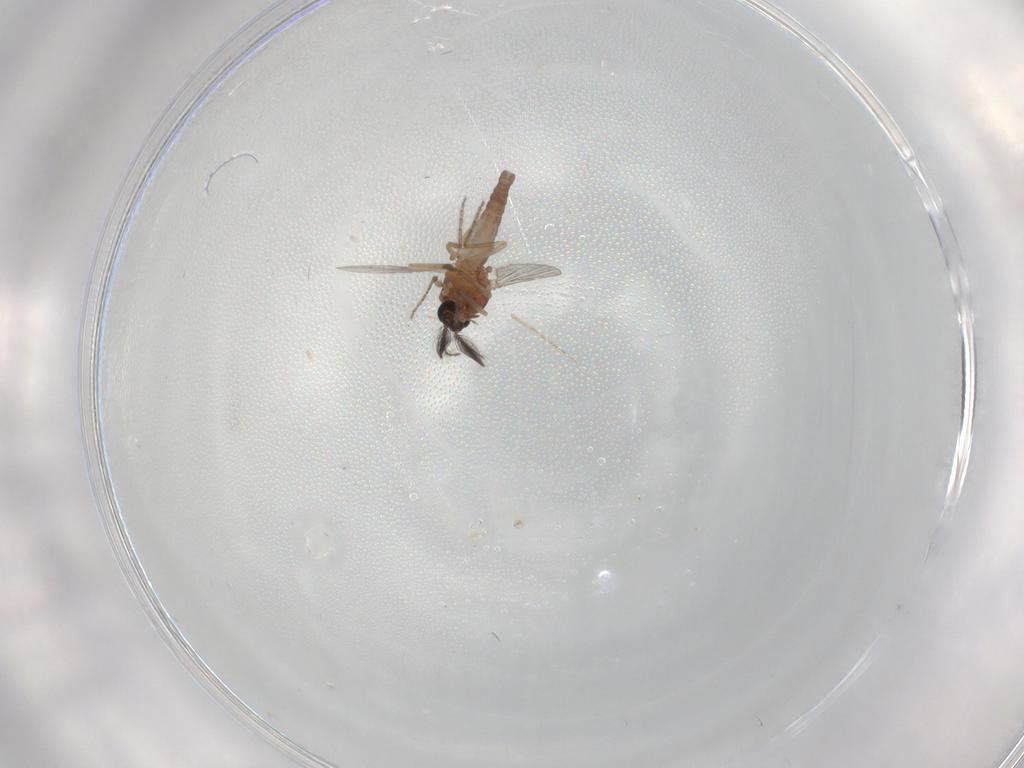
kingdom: Animalia
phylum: Arthropoda
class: Insecta
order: Diptera
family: Ceratopogonidae
